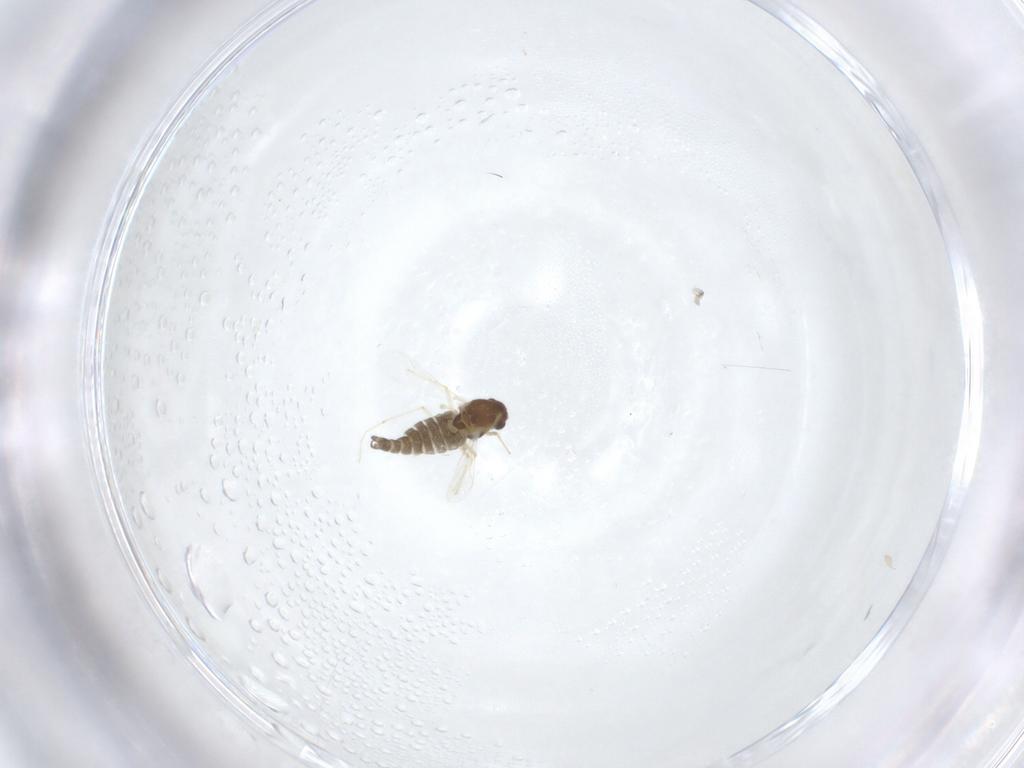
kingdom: Animalia
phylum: Arthropoda
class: Insecta
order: Diptera
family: Chironomidae
